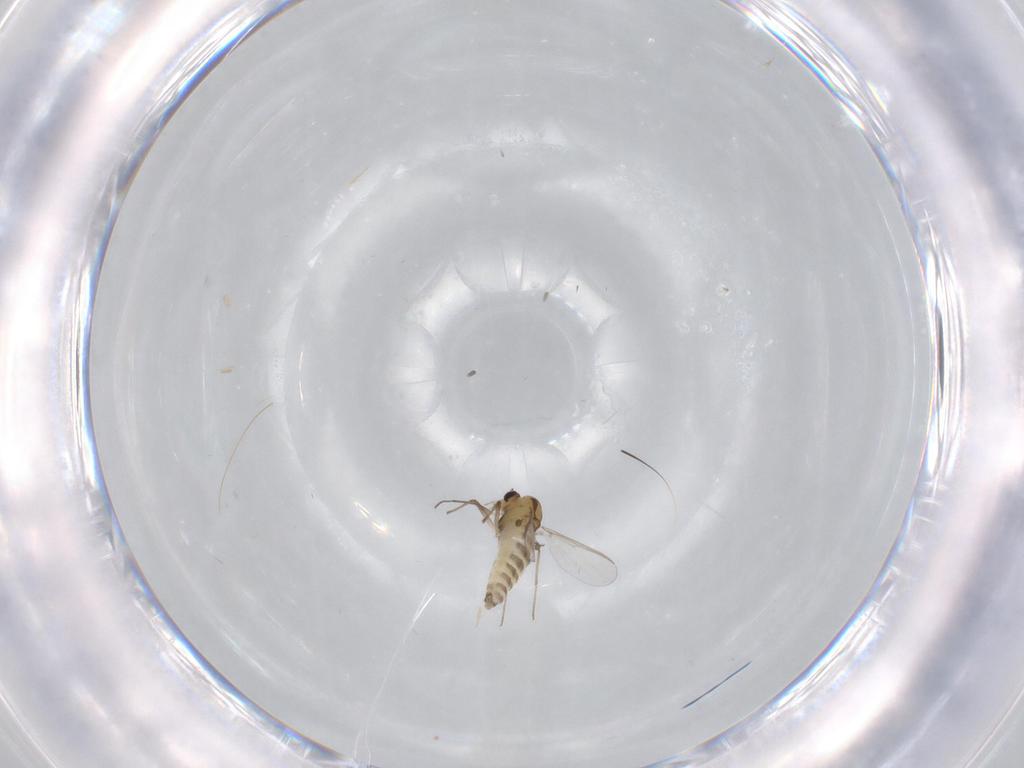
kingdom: Animalia
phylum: Arthropoda
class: Insecta
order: Diptera
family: Chironomidae
